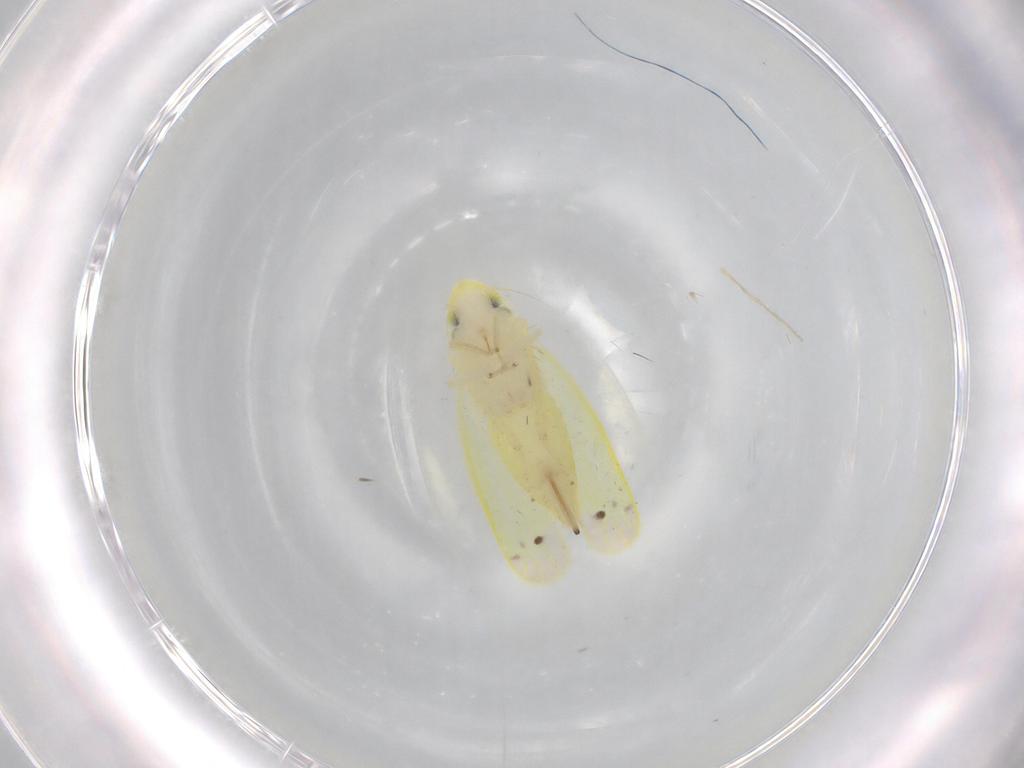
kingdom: Animalia
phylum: Arthropoda
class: Insecta
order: Hemiptera
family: Cicadellidae
